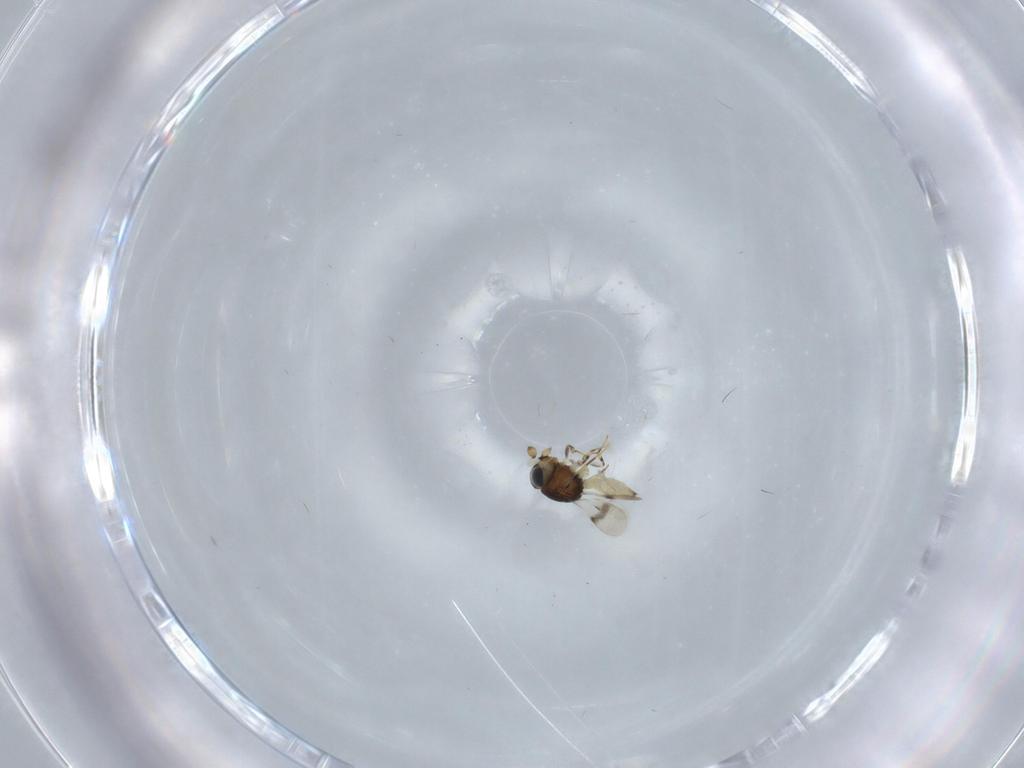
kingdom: Animalia
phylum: Arthropoda
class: Insecta
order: Hymenoptera
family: Scelionidae
